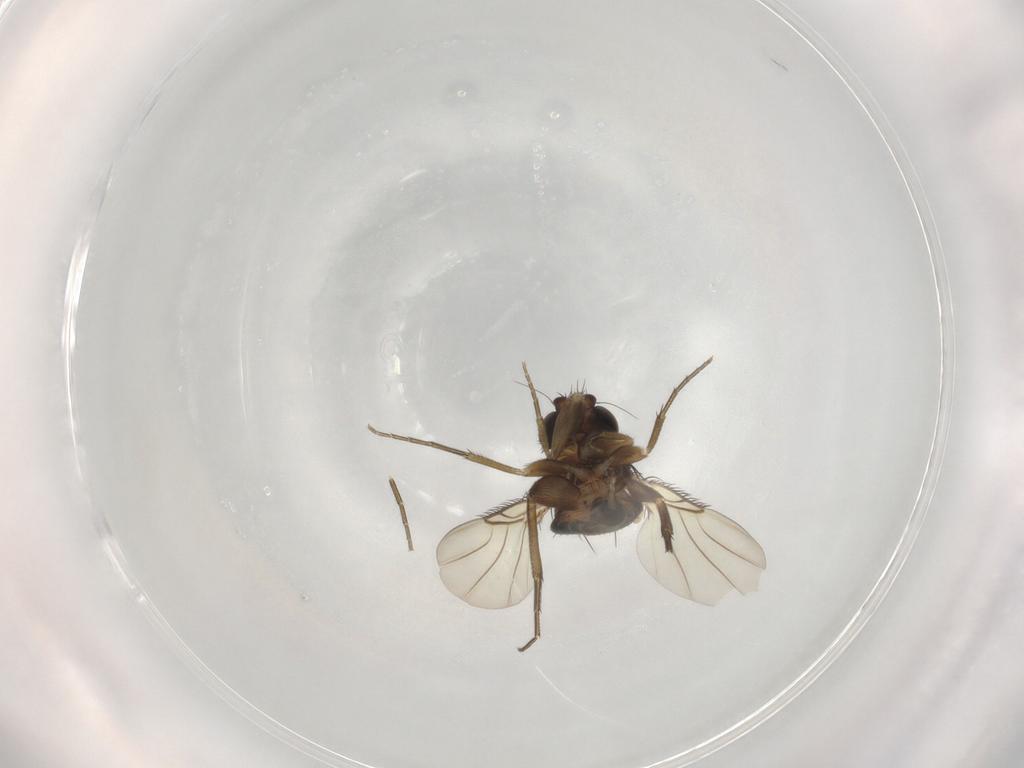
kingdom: Animalia
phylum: Arthropoda
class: Insecta
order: Diptera
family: Phoridae
